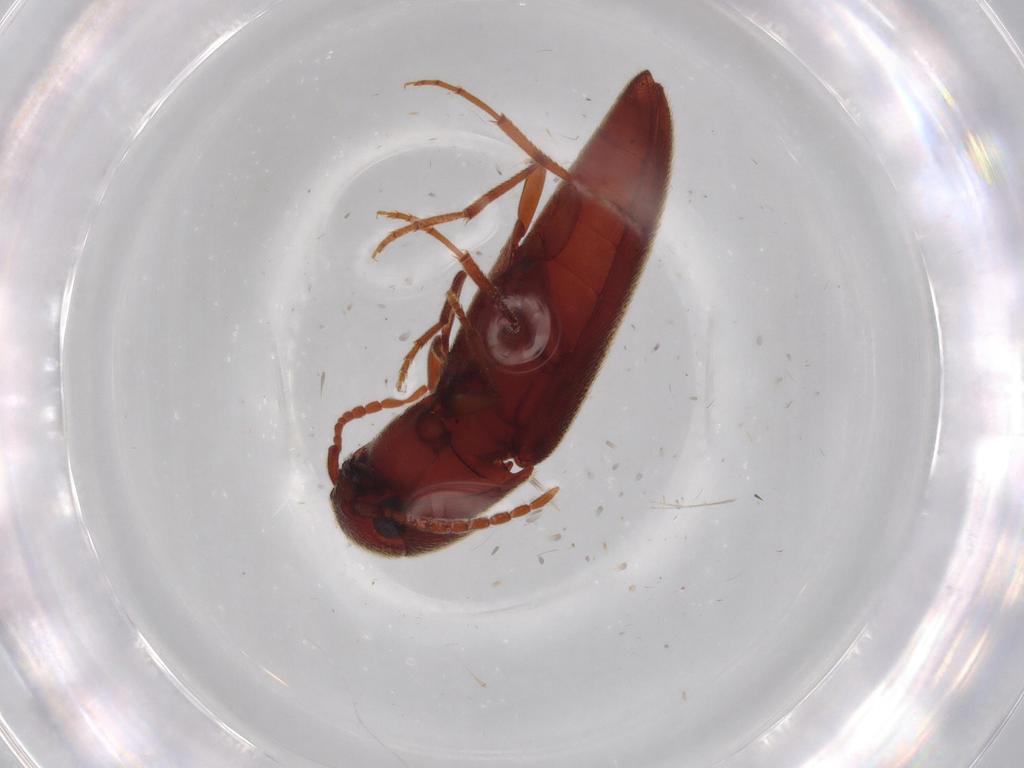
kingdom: Animalia
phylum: Arthropoda
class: Insecta
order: Coleoptera
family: Eucnemidae
